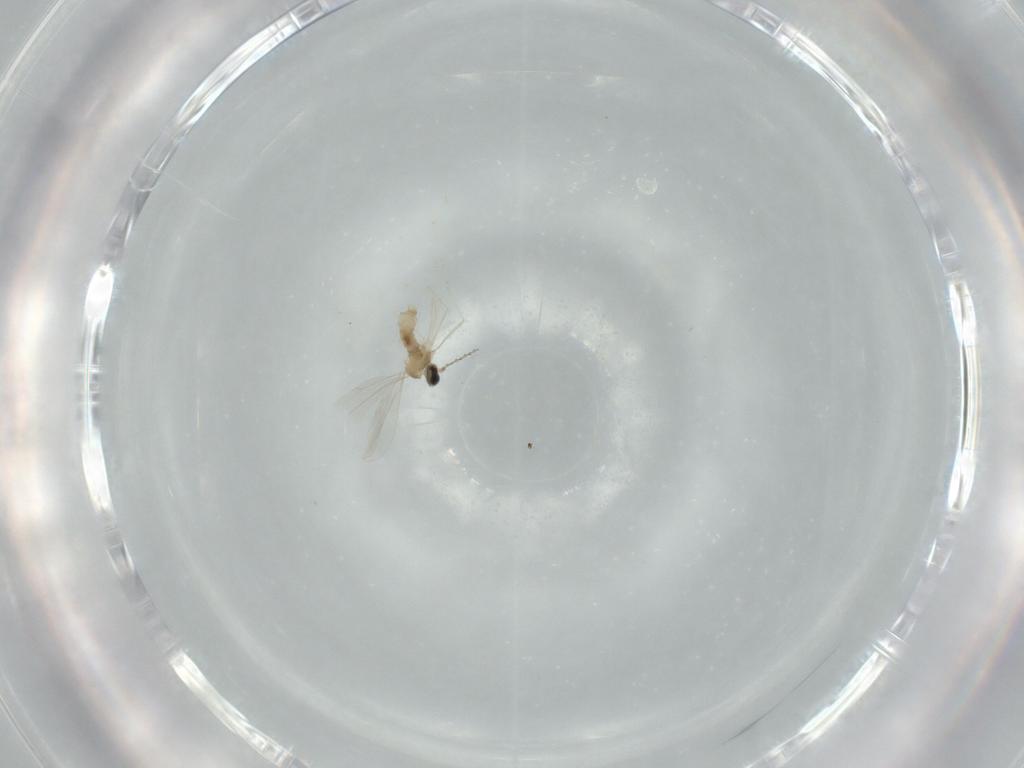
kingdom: Animalia
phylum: Arthropoda
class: Insecta
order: Diptera
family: Cecidomyiidae
